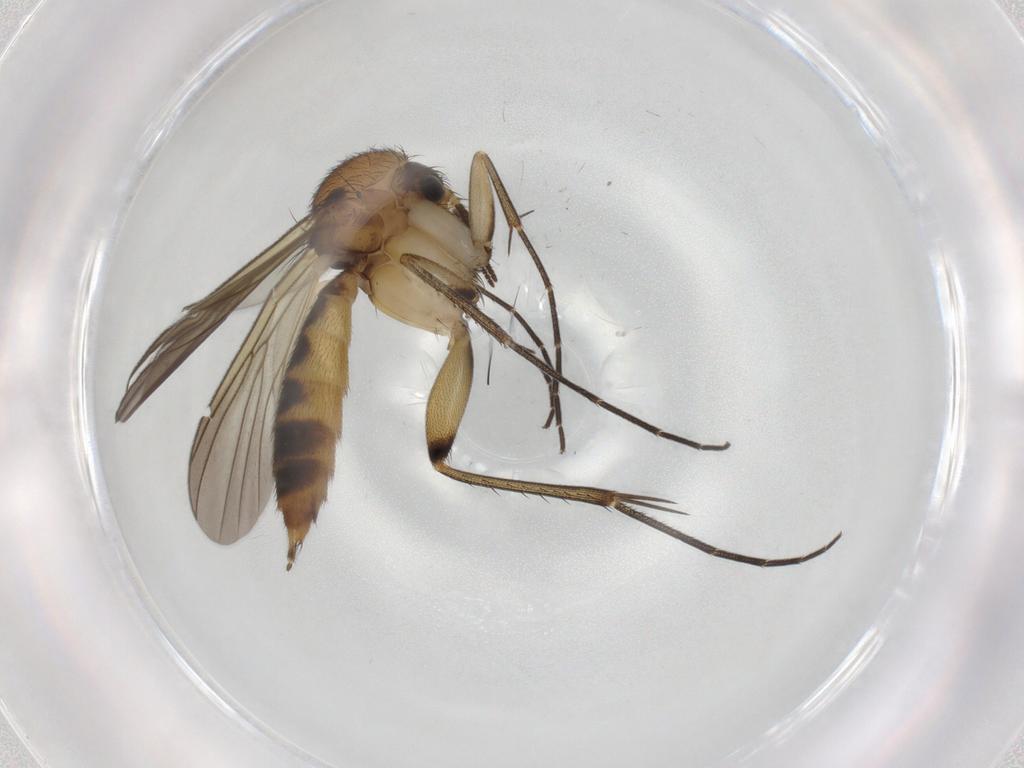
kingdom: Animalia
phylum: Arthropoda
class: Insecta
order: Diptera
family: Mycetophilidae
